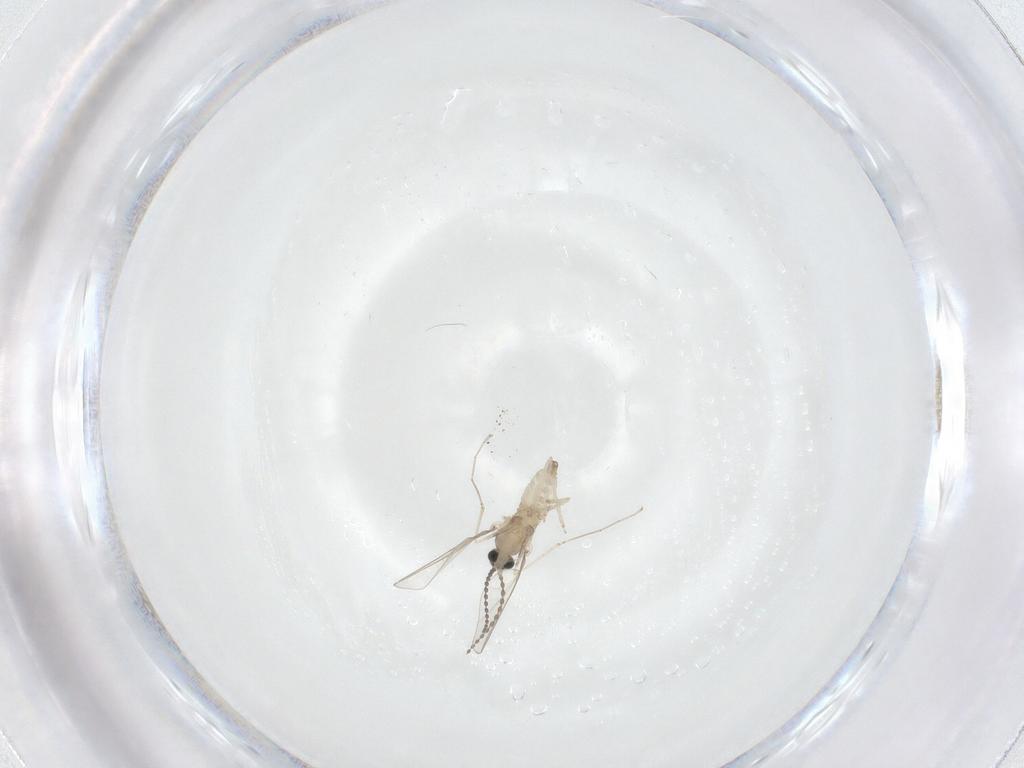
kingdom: Animalia
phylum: Arthropoda
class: Insecta
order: Diptera
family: Cecidomyiidae
